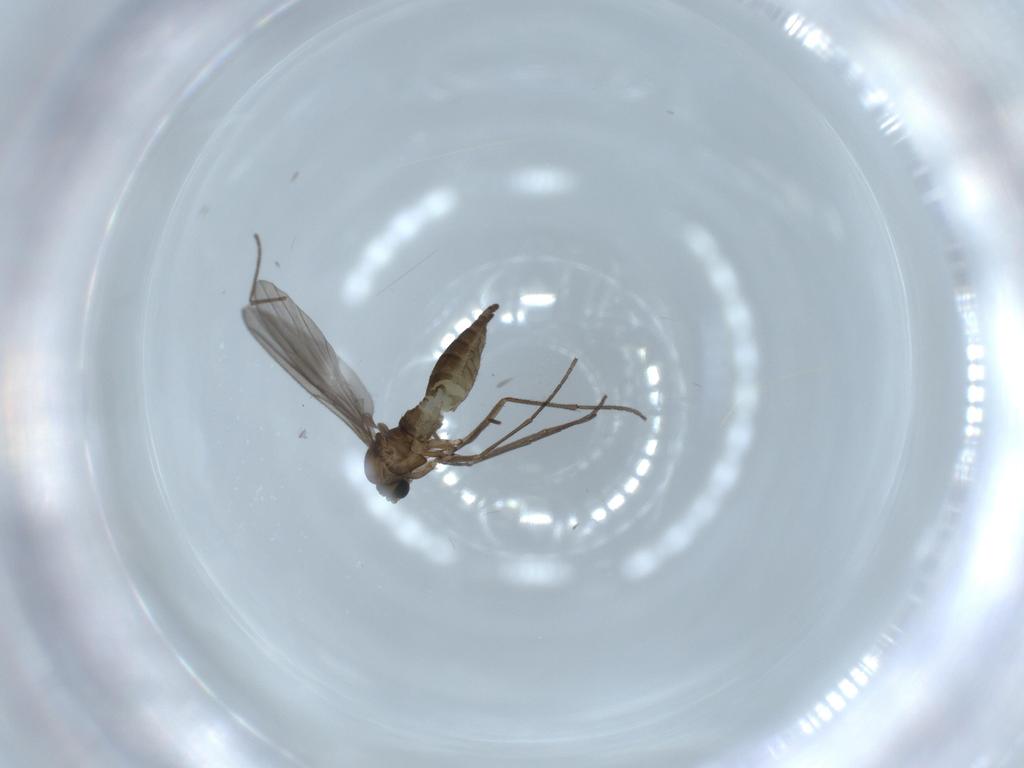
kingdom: Animalia
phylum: Arthropoda
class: Insecta
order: Diptera
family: Sciaridae
